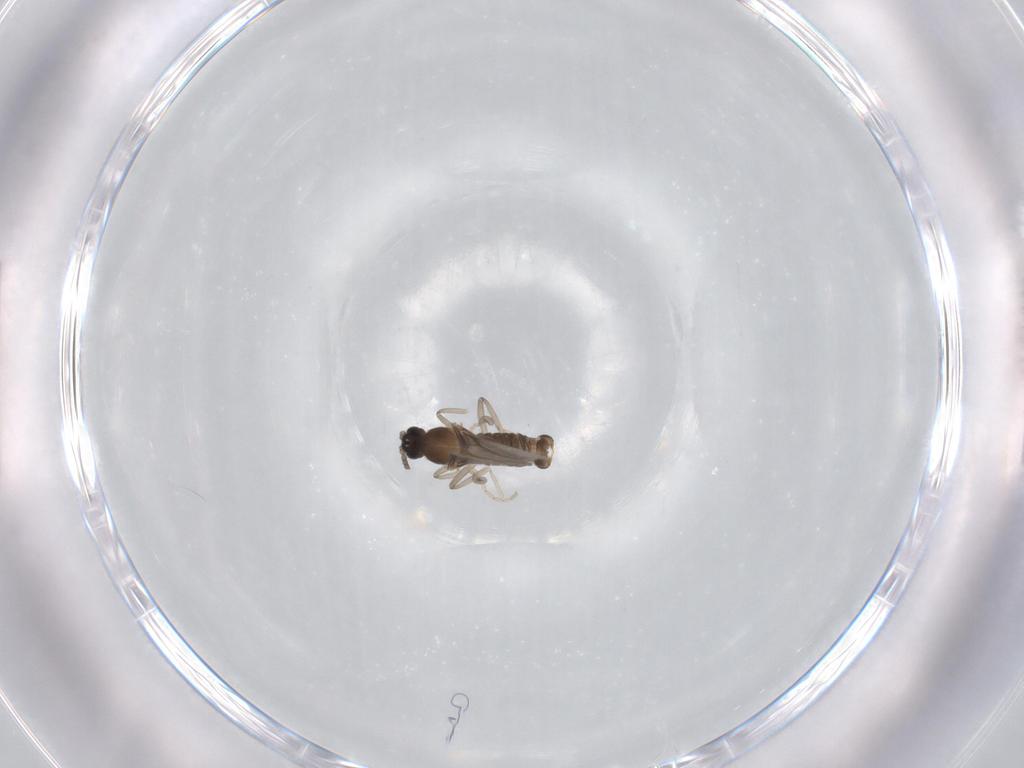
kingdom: Animalia
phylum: Arthropoda
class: Insecta
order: Diptera
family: Cecidomyiidae
